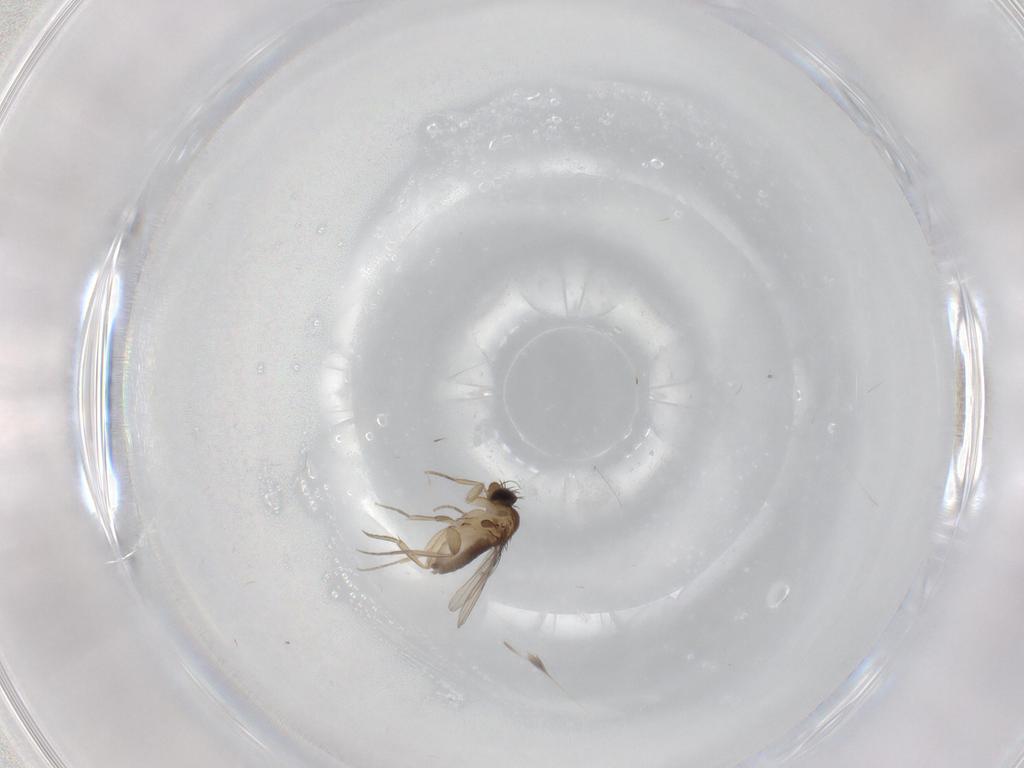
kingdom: Animalia
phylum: Arthropoda
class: Insecta
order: Diptera
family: Phoridae
